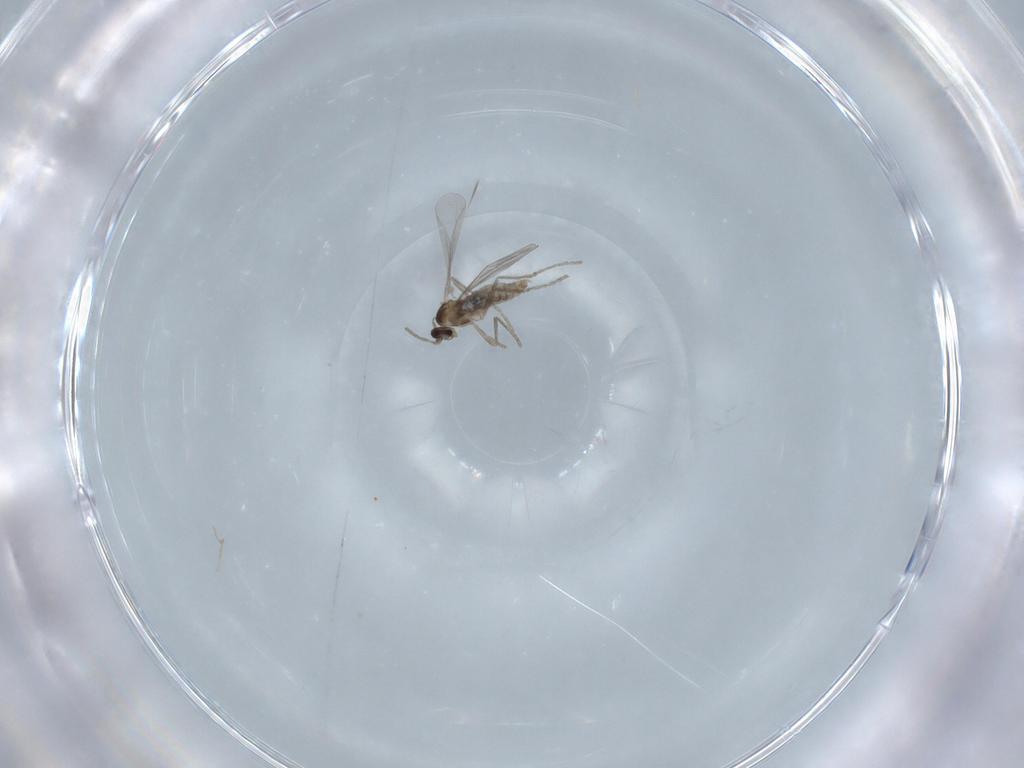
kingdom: Animalia
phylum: Arthropoda
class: Insecta
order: Diptera
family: Cecidomyiidae
